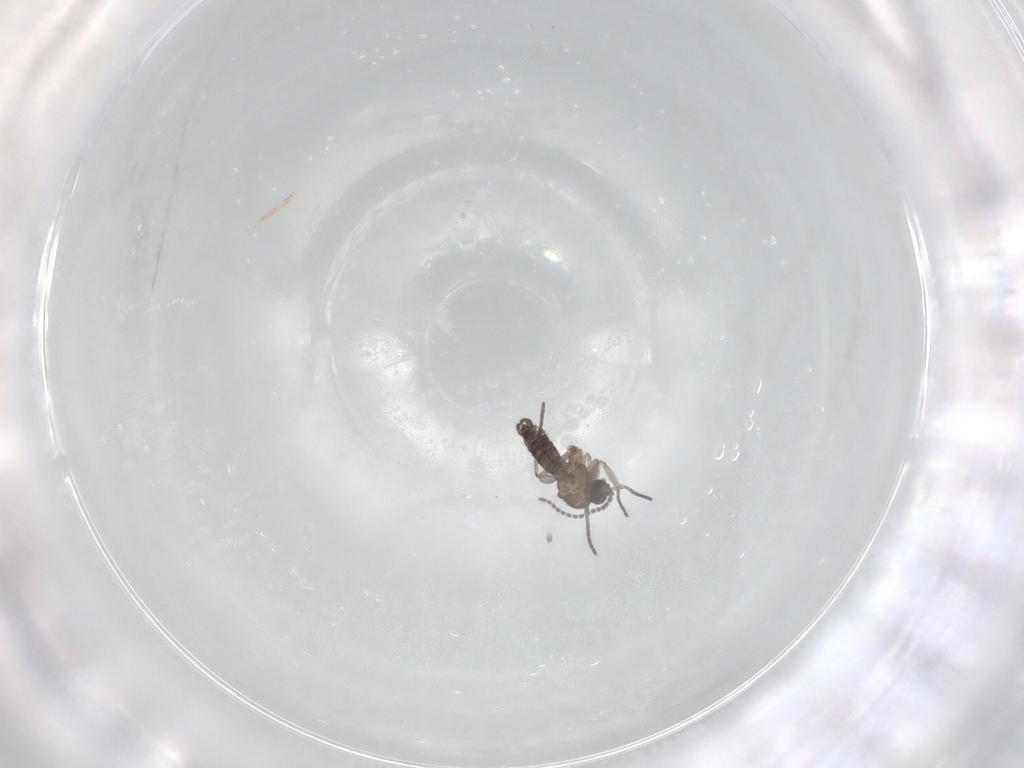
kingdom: Animalia
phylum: Arthropoda
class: Insecta
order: Diptera
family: Sciaridae
